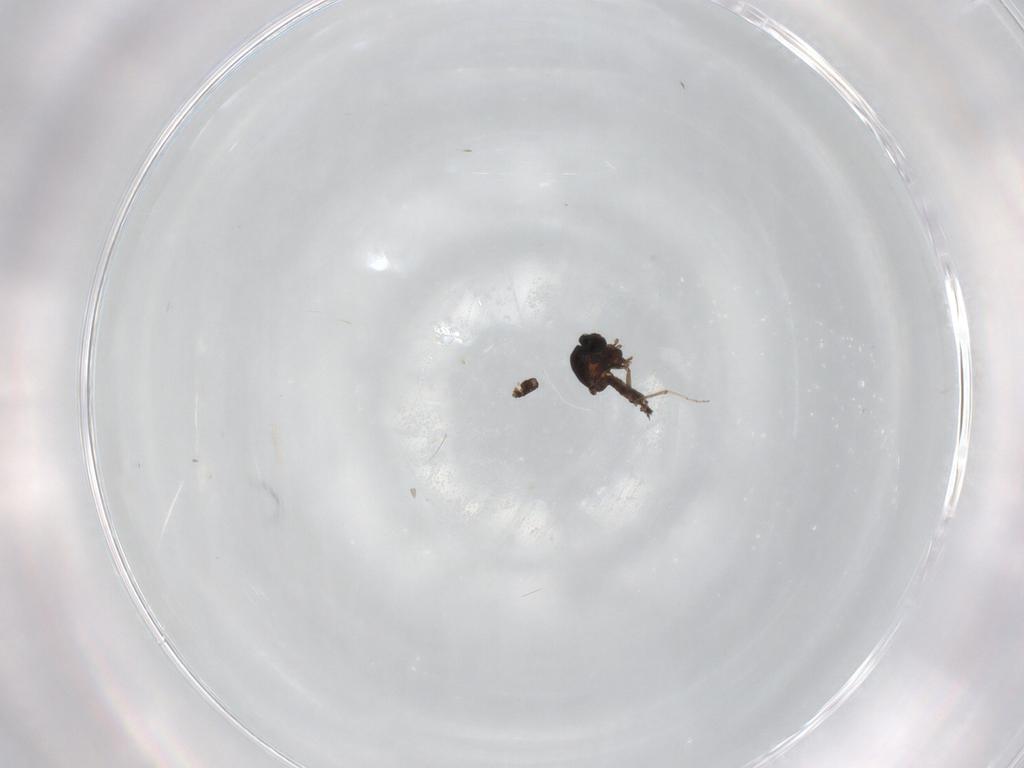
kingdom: Animalia
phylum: Arthropoda
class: Insecta
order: Diptera
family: Ceratopogonidae
